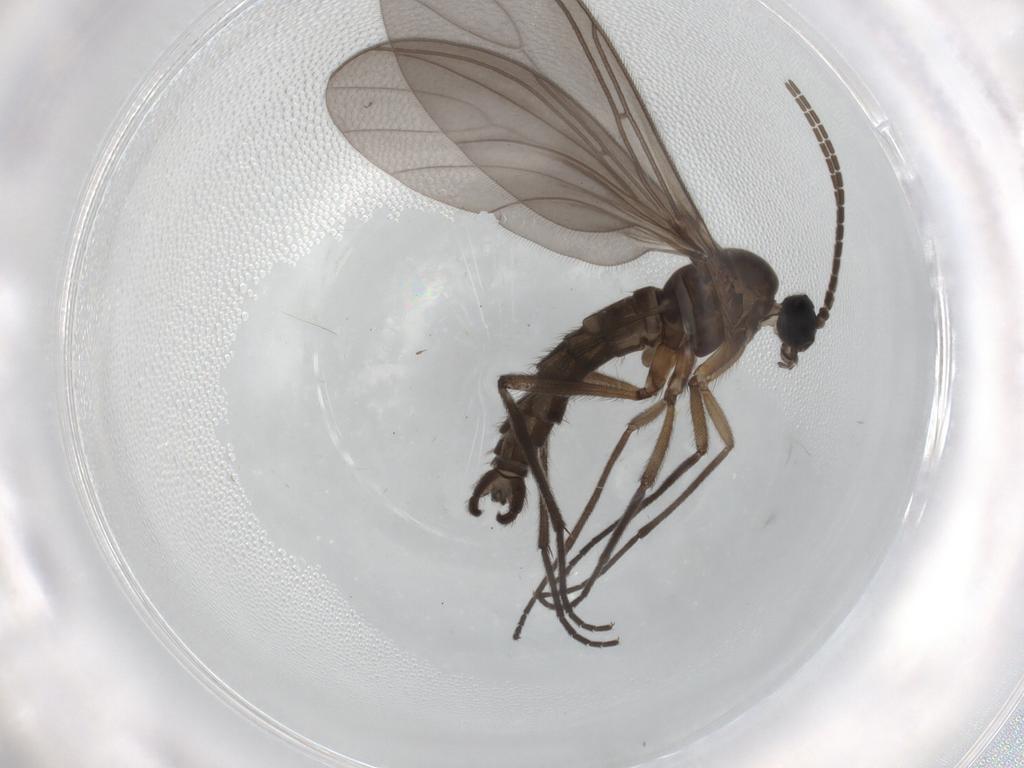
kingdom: Animalia
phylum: Arthropoda
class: Insecta
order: Diptera
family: Sciaridae
